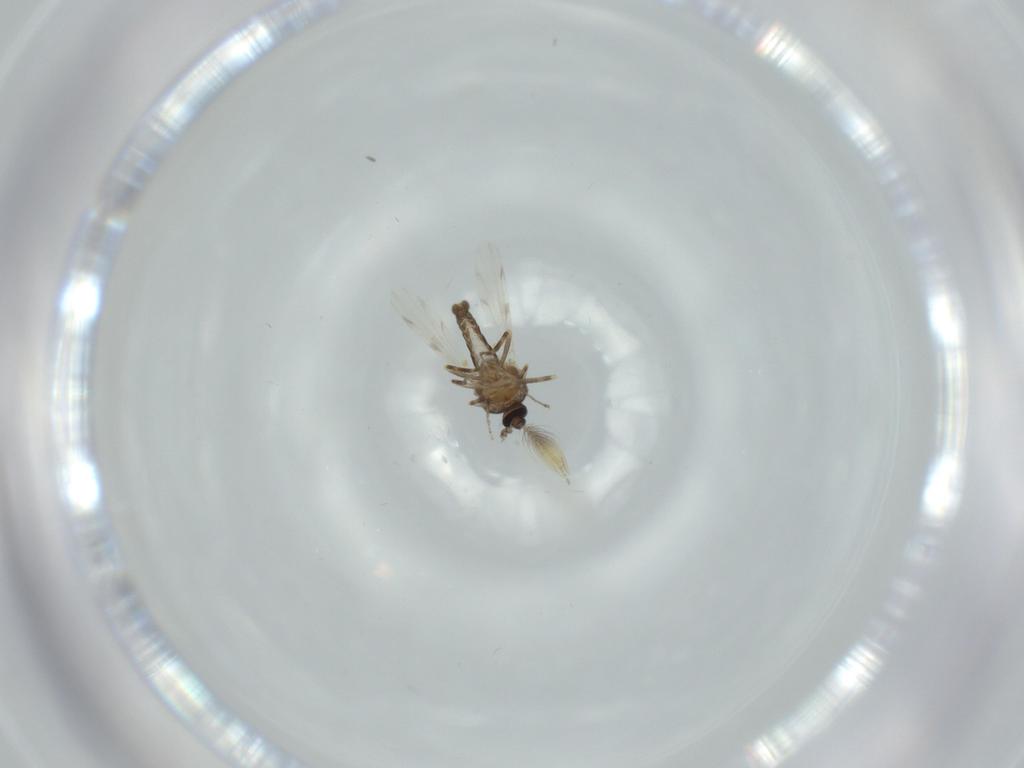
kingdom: Animalia
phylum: Arthropoda
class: Insecta
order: Diptera
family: Ceratopogonidae
